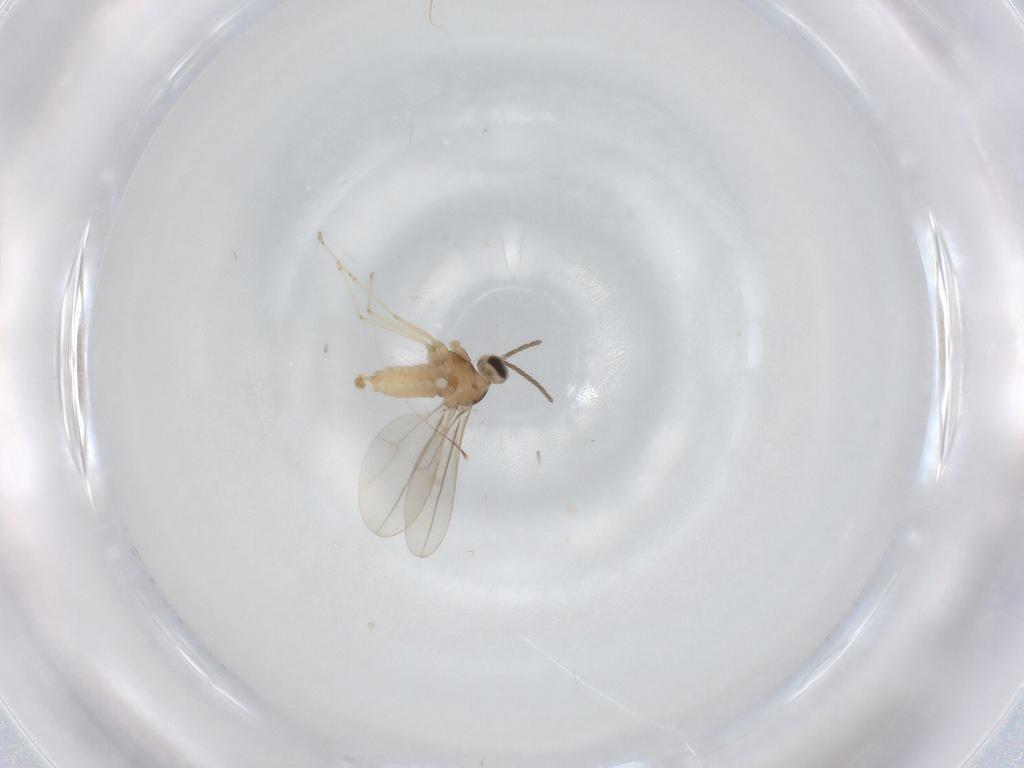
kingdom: Animalia
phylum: Arthropoda
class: Insecta
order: Diptera
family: Cecidomyiidae
